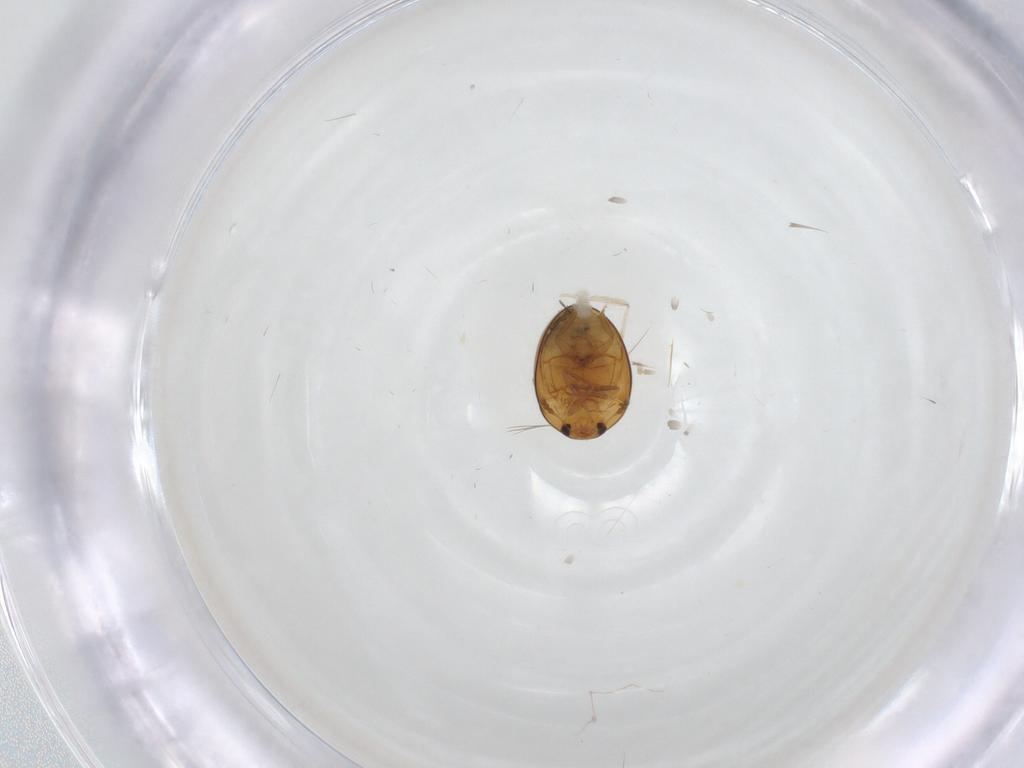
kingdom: Animalia
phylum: Arthropoda
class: Insecta
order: Coleoptera
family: Phalacridae
